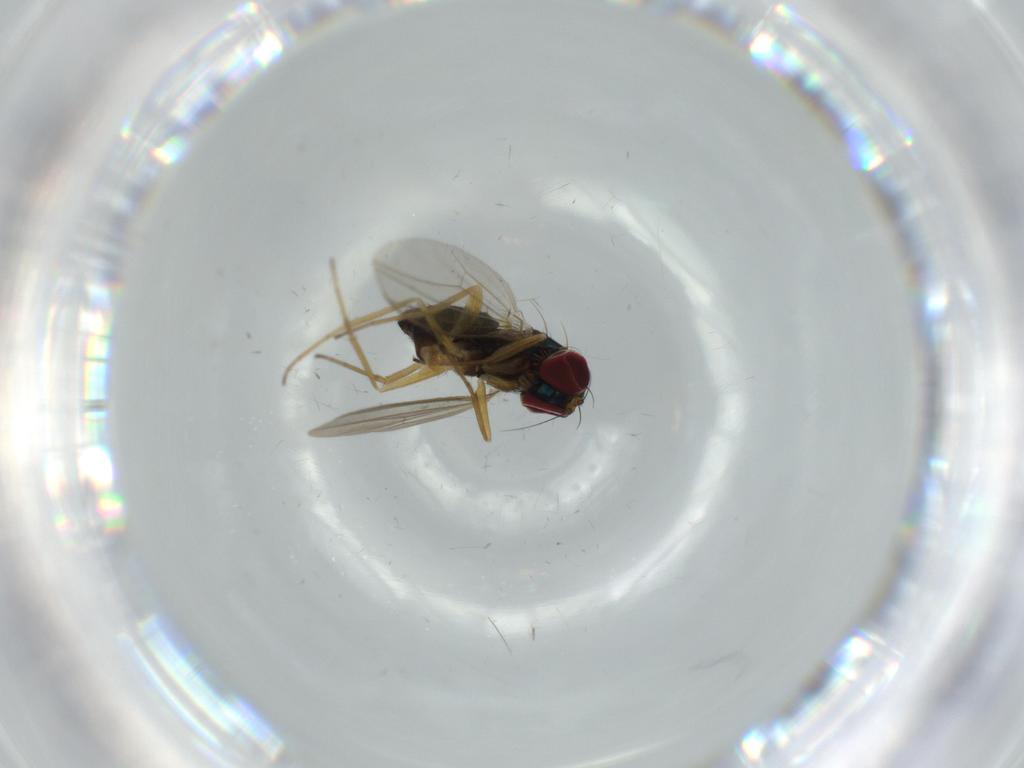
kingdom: Animalia
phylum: Arthropoda
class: Insecta
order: Diptera
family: Dolichopodidae
